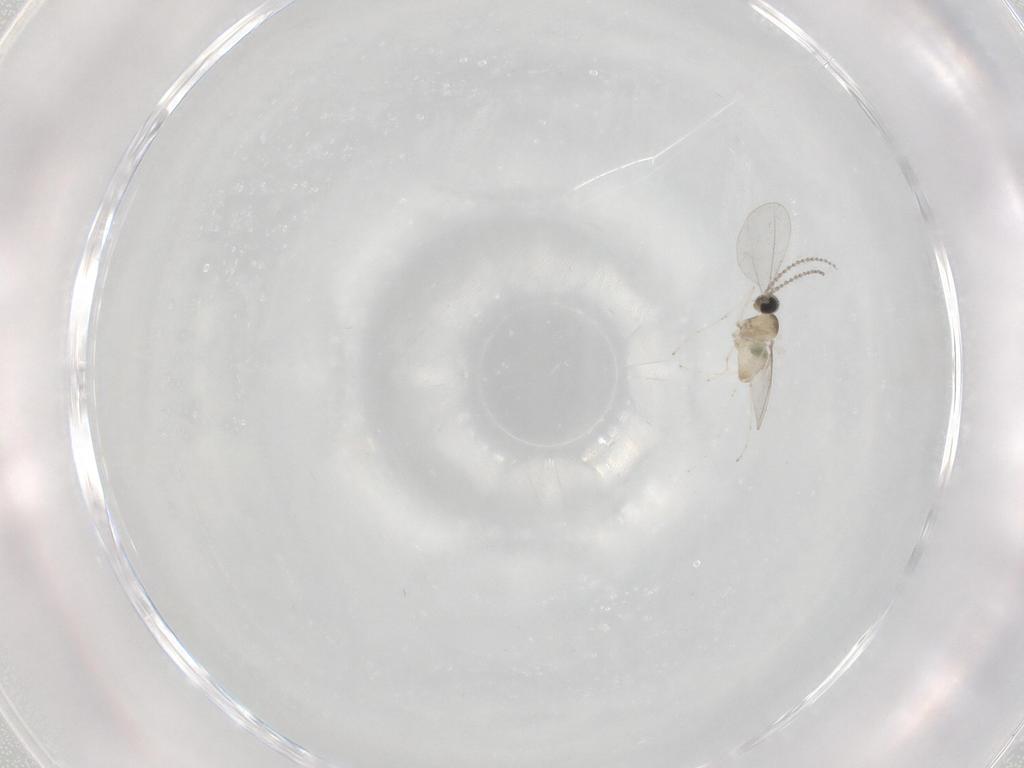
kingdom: Animalia
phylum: Arthropoda
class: Insecta
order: Diptera
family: Cecidomyiidae
